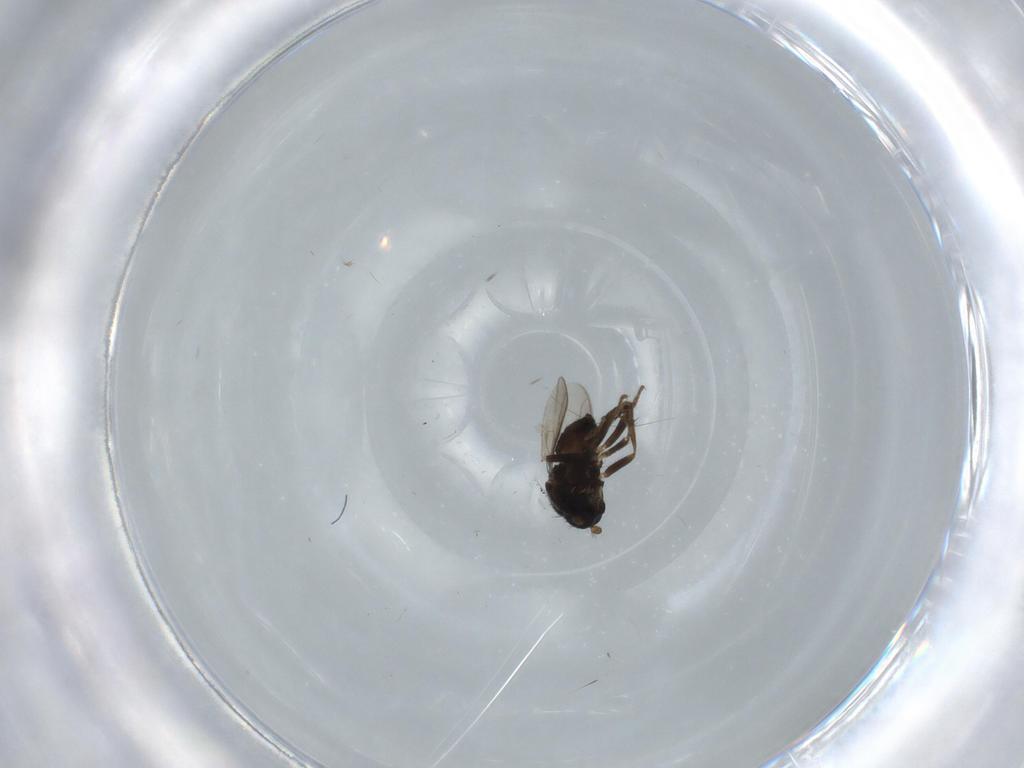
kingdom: Animalia
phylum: Arthropoda
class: Insecta
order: Diptera
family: Sphaeroceridae
